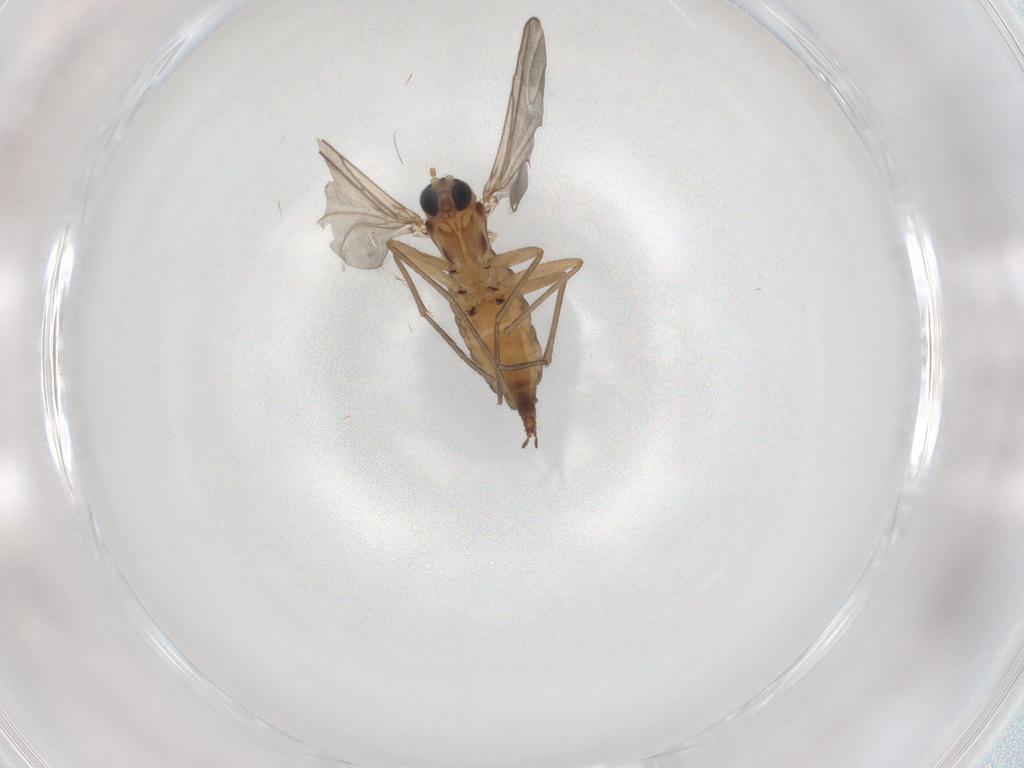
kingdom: Animalia
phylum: Arthropoda
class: Insecta
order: Diptera
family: Sciaridae
